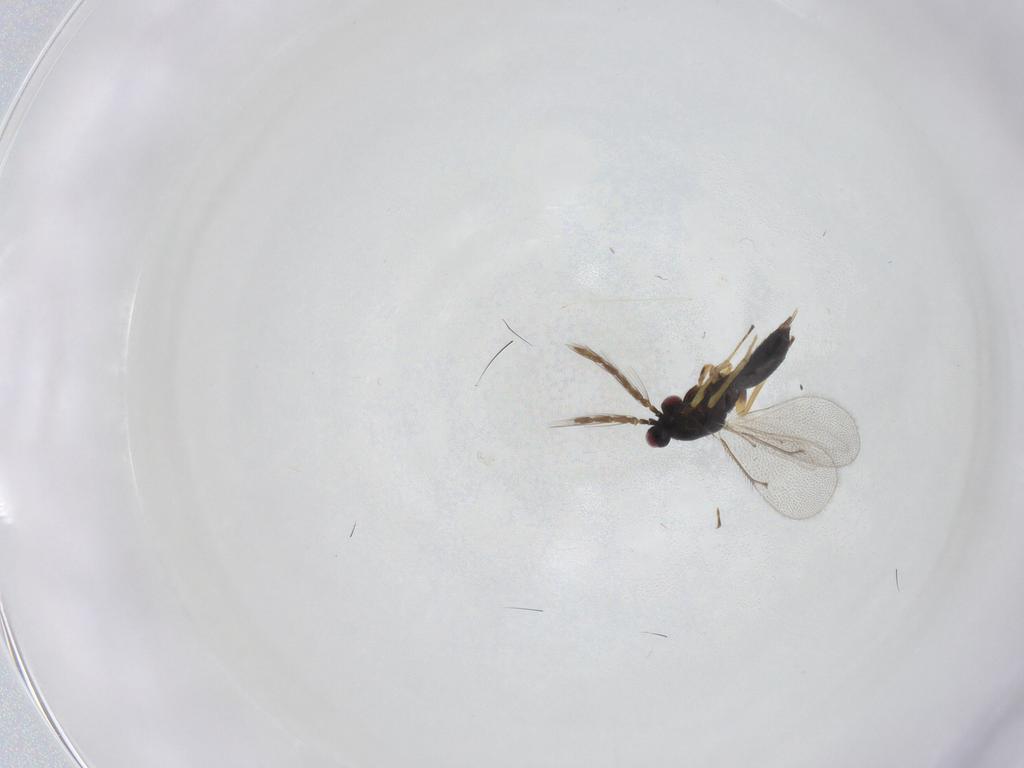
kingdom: Animalia
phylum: Arthropoda
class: Insecta
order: Hymenoptera
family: Eulophidae
